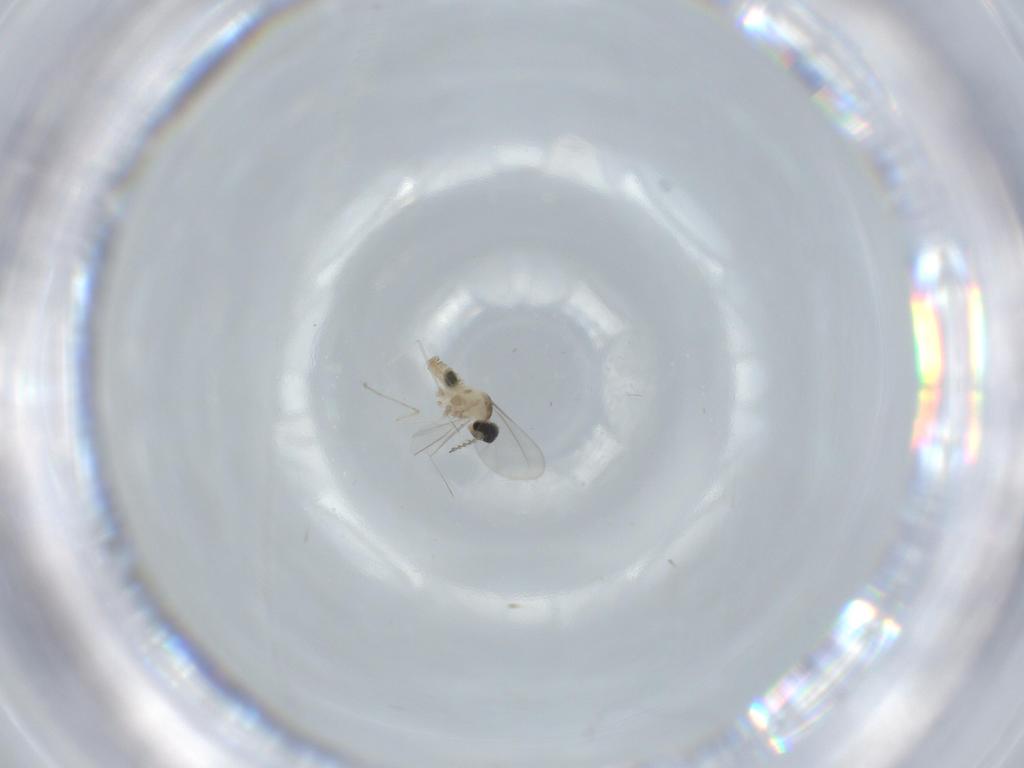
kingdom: Animalia
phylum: Arthropoda
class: Insecta
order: Diptera
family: Cecidomyiidae
